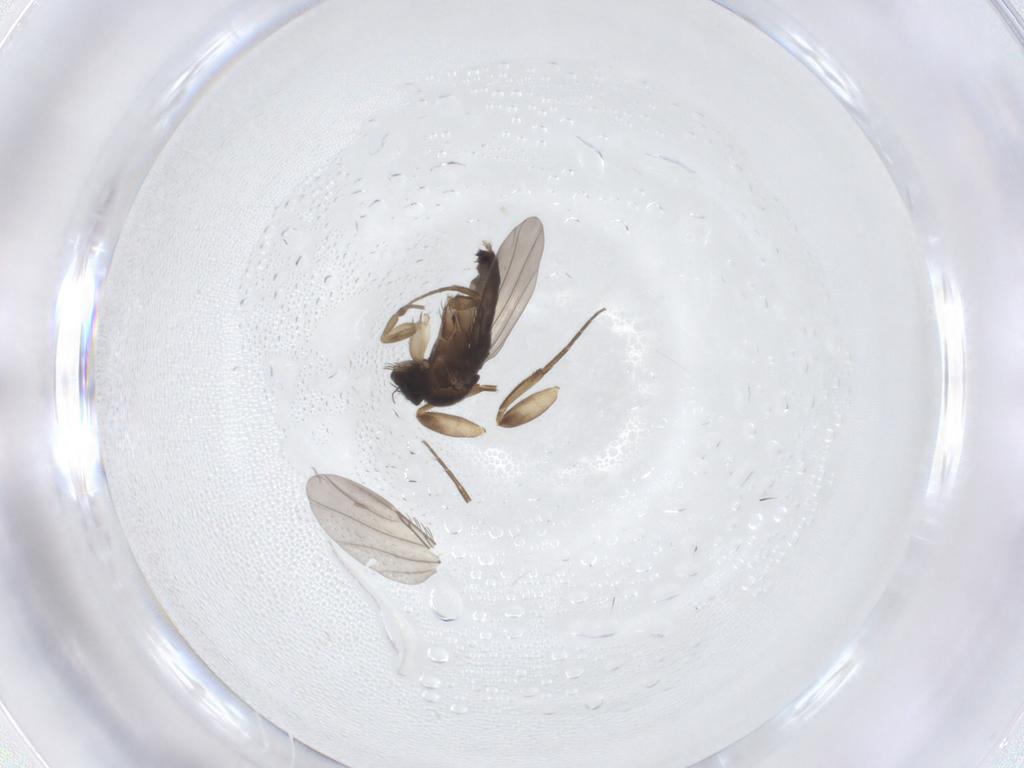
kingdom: Animalia
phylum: Arthropoda
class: Insecta
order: Diptera
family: Phoridae
